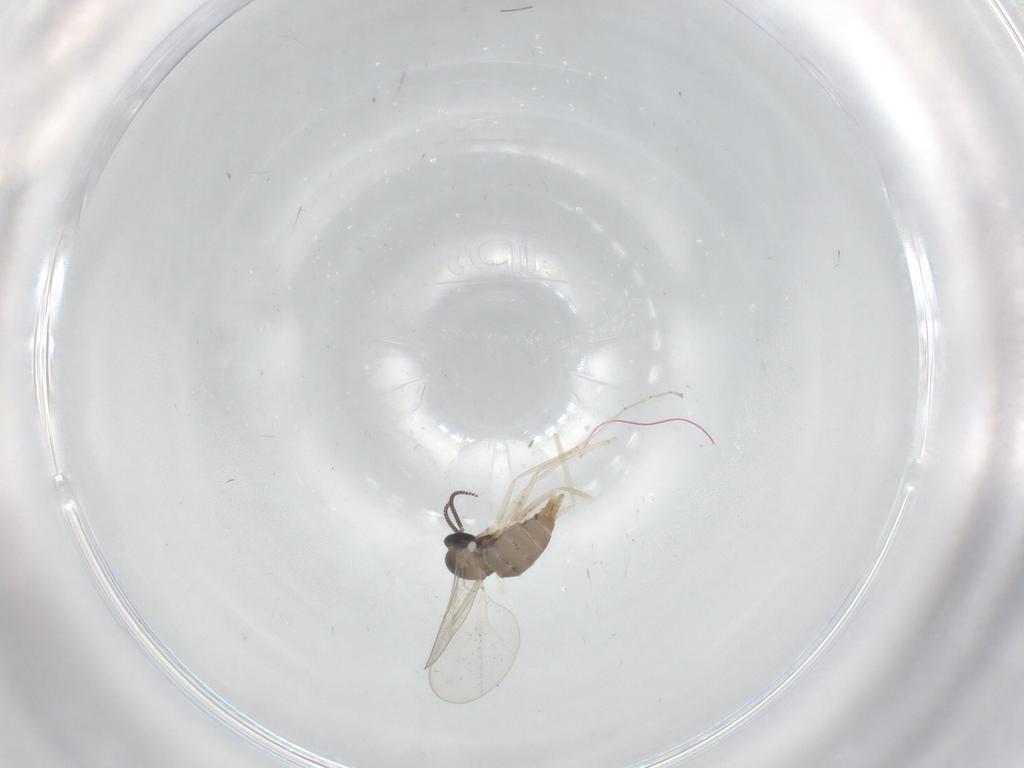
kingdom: Animalia
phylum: Arthropoda
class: Insecta
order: Diptera
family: Cecidomyiidae
